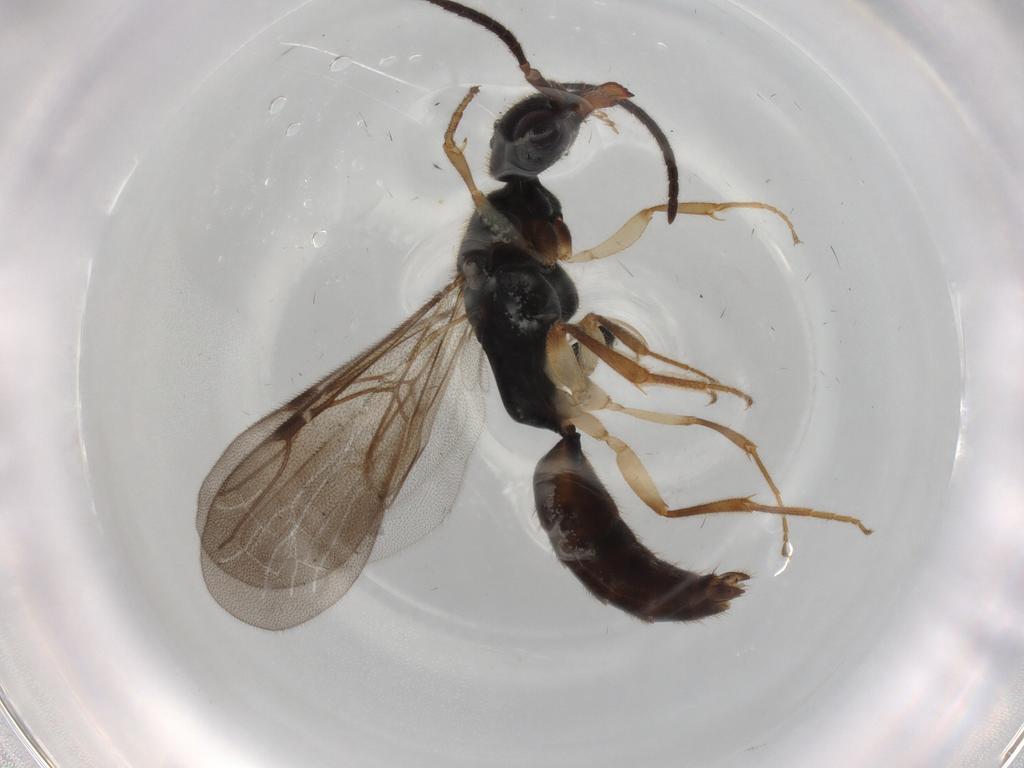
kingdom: Animalia
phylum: Arthropoda
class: Insecta
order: Hymenoptera
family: Bethylidae
